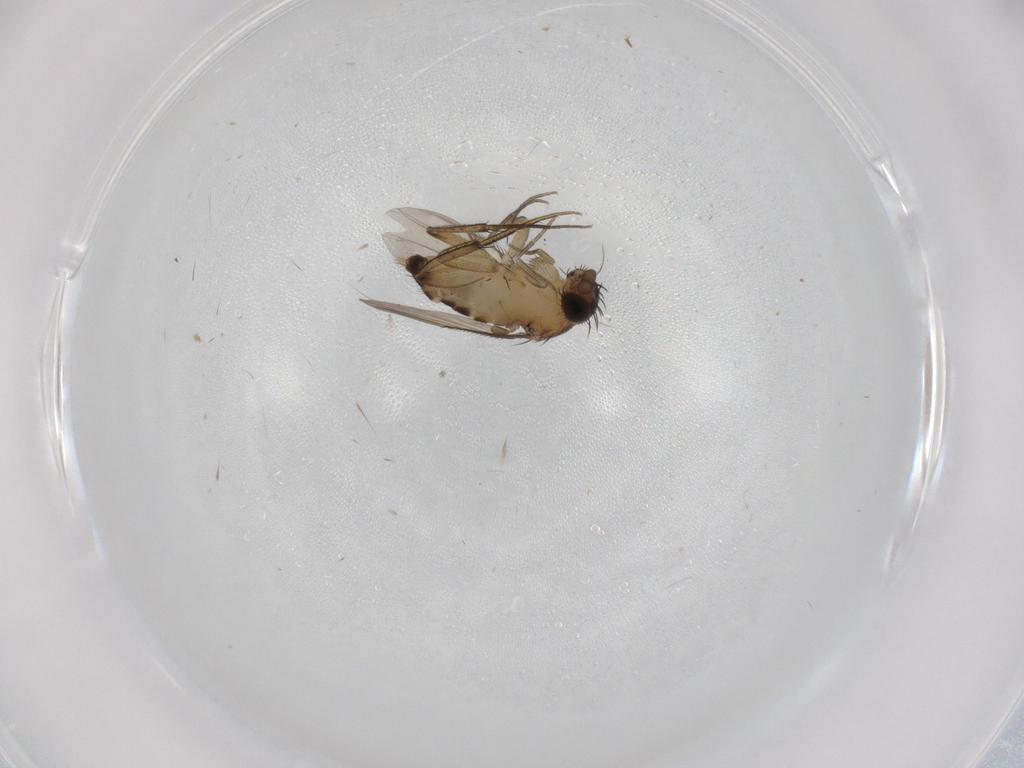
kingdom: Animalia
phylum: Arthropoda
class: Insecta
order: Diptera
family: Phoridae
